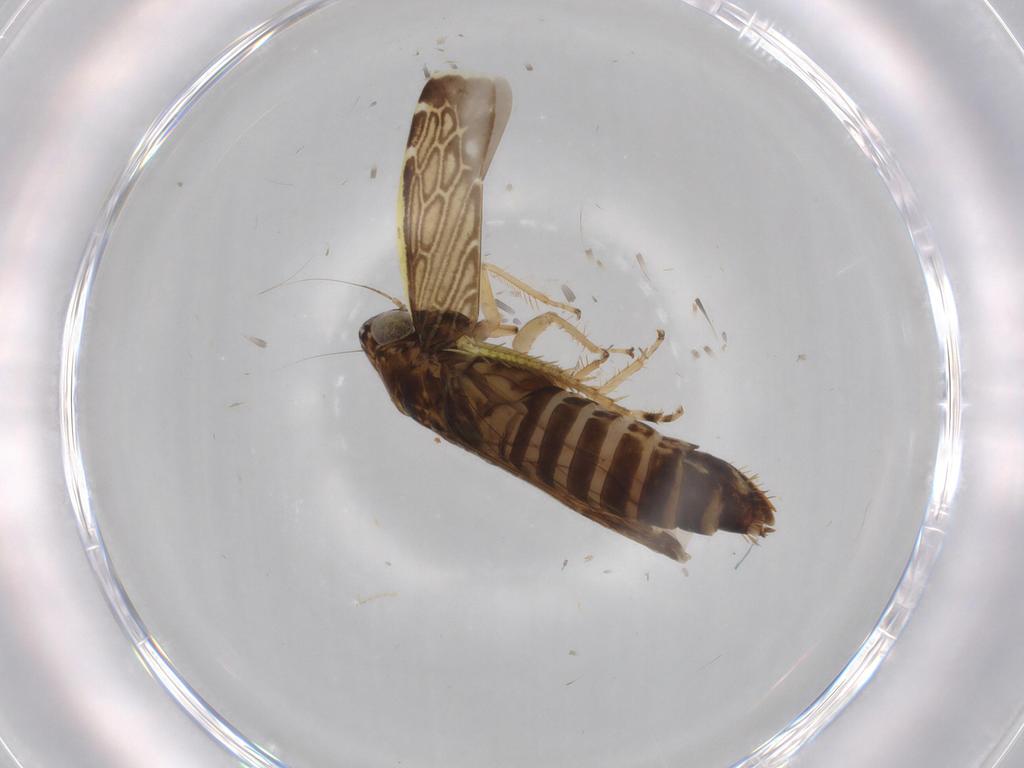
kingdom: Animalia
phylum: Arthropoda
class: Insecta
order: Hemiptera
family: Cicadellidae
